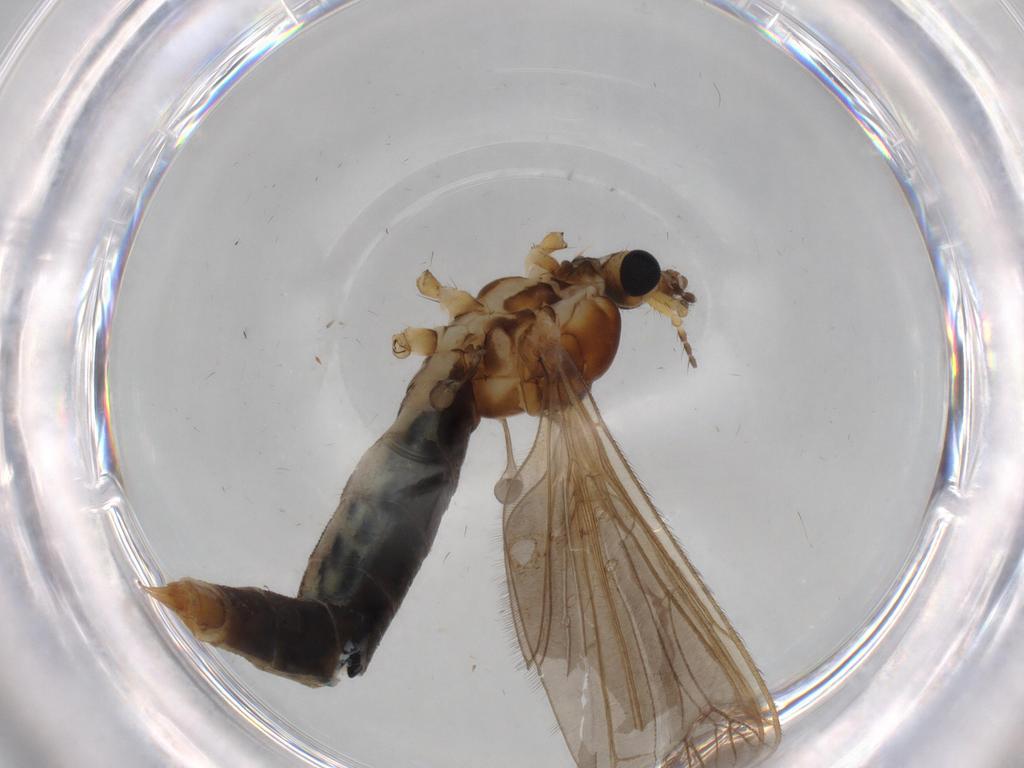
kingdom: Animalia
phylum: Arthropoda
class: Insecta
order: Diptera
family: Cecidomyiidae
